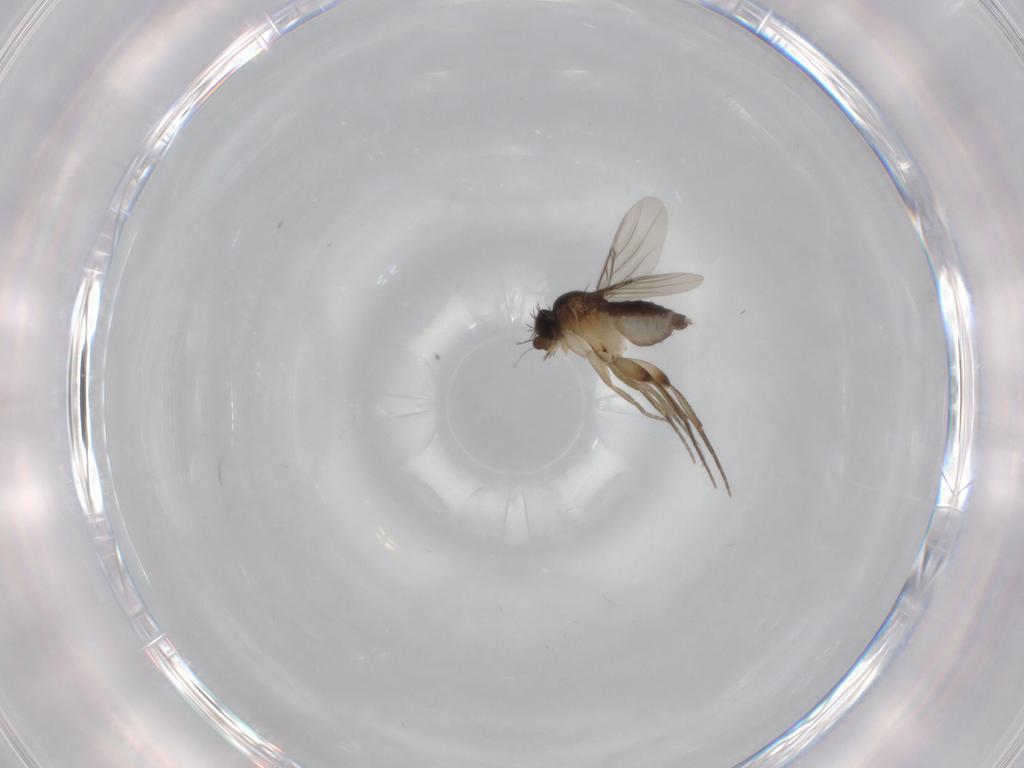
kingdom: Animalia
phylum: Arthropoda
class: Insecta
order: Diptera
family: Phoridae
